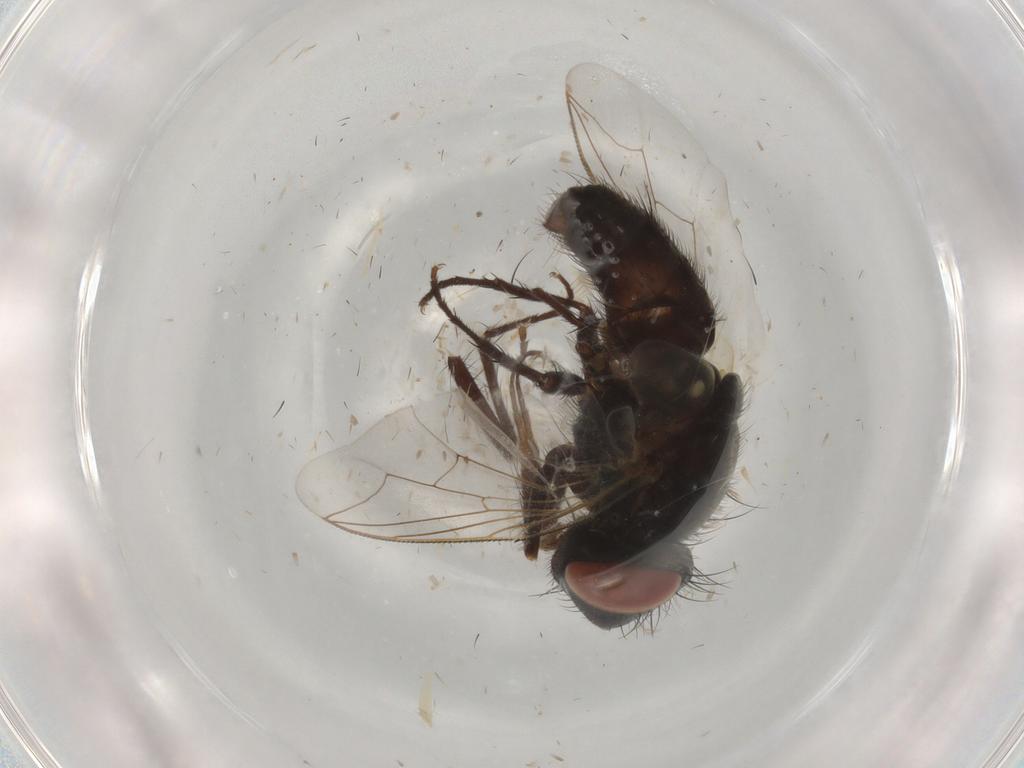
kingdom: Animalia
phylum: Arthropoda
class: Insecta
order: Diptera
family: Sarcophagidae
